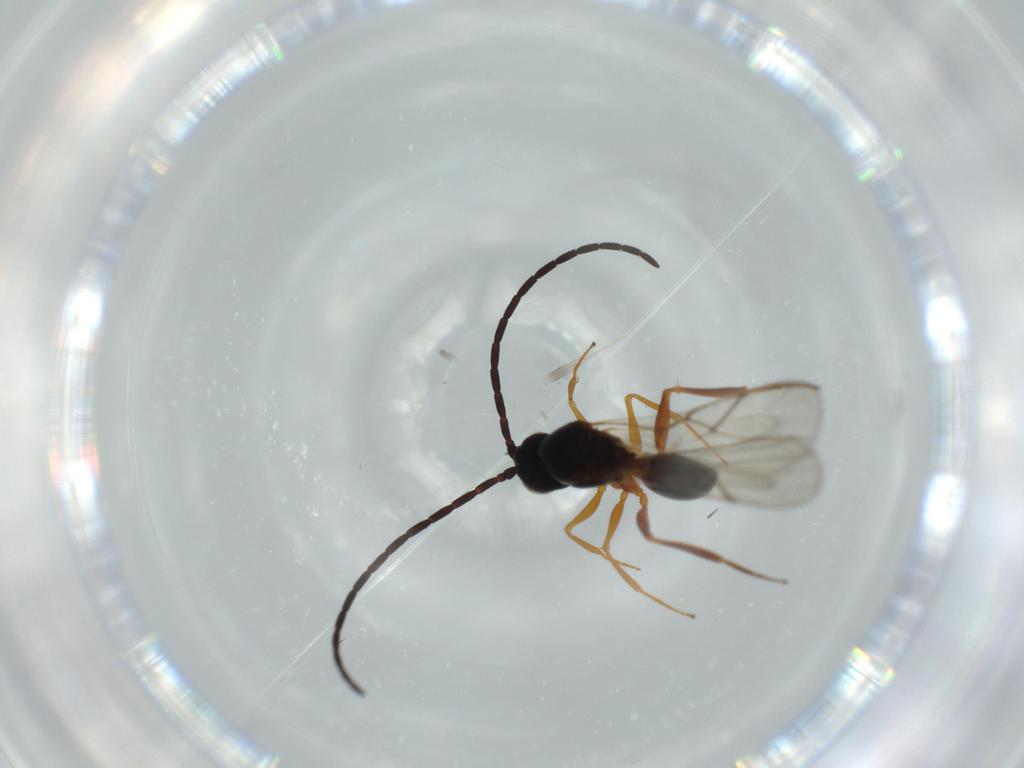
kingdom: Animalia
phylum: Arthropoda
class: Insecta
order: Hymenoptera
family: Figitidae
